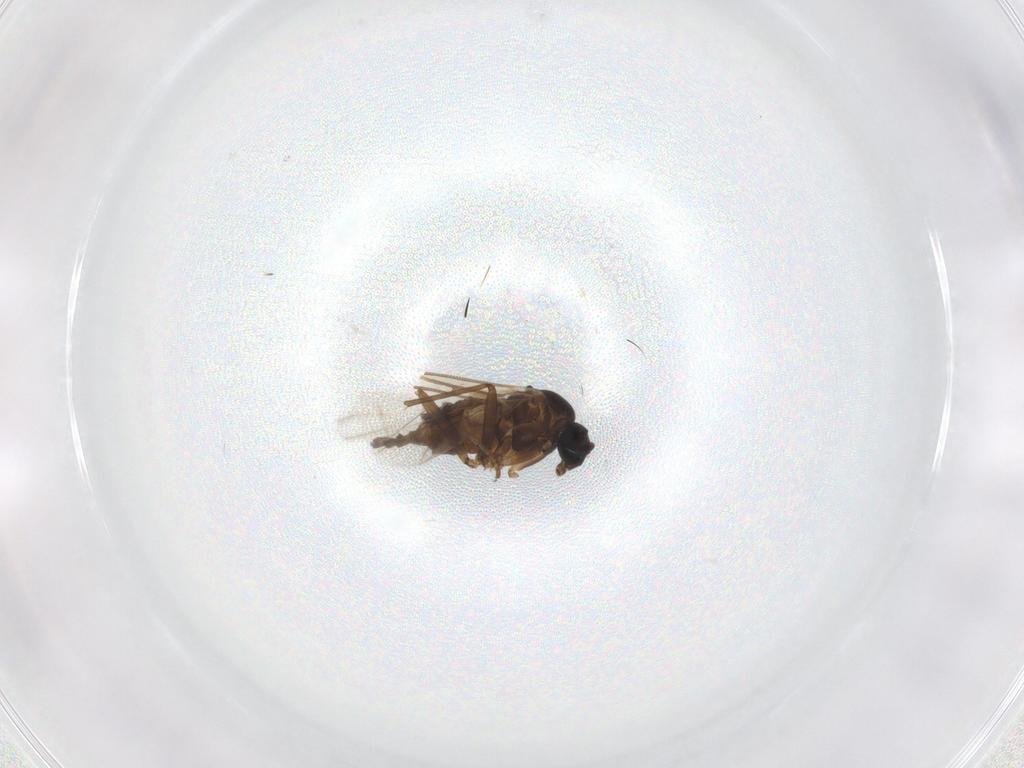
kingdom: Animalia
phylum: Arthropoda
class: Insecta
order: Diptera
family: Sciaridae
